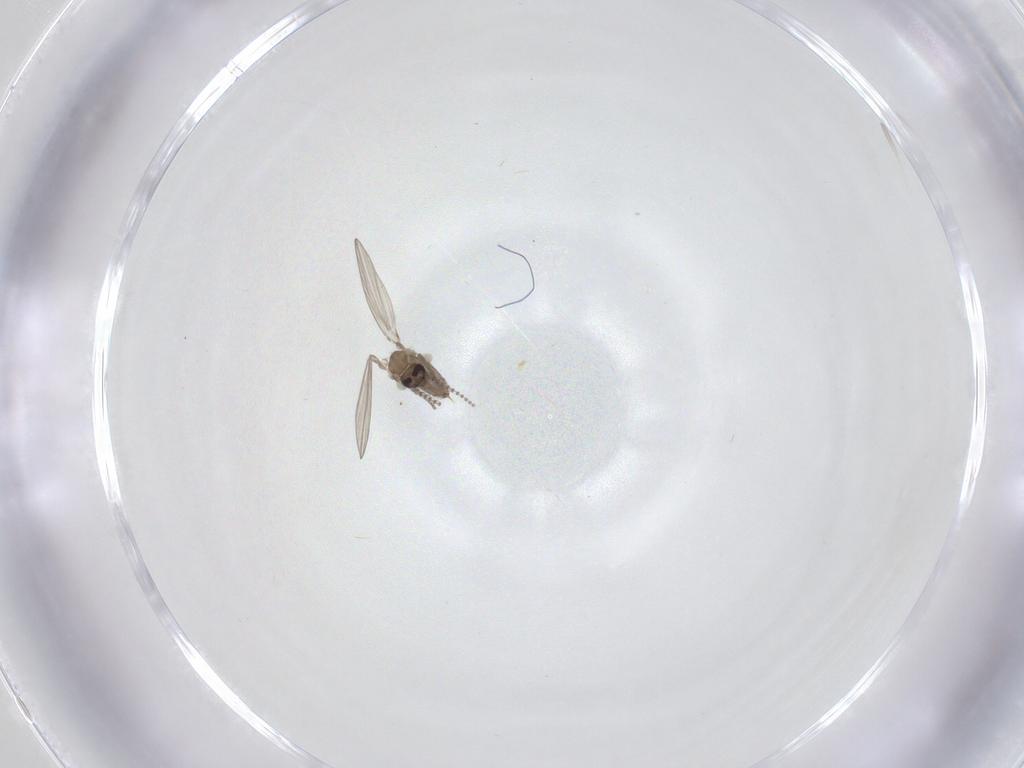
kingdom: Animalia
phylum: Arthropoda
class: Insecta
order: Diptera
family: Psychodidae
